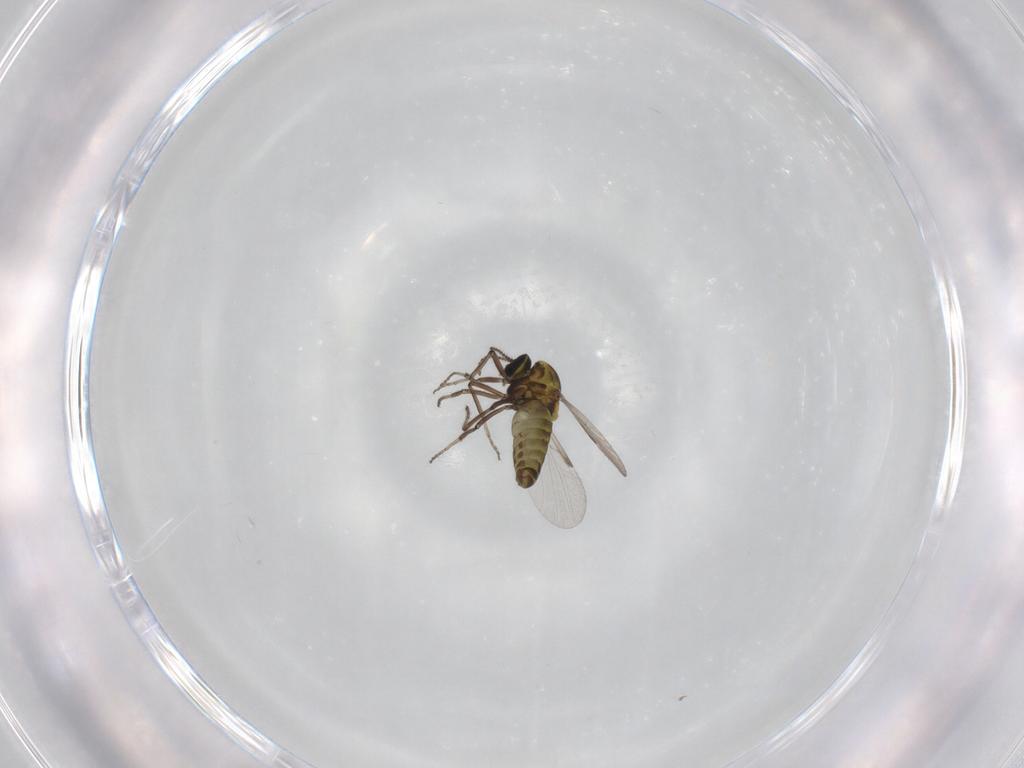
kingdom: Animalia
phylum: Arthropoda
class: Insecta
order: Diptera
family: Ceratopogonidae
